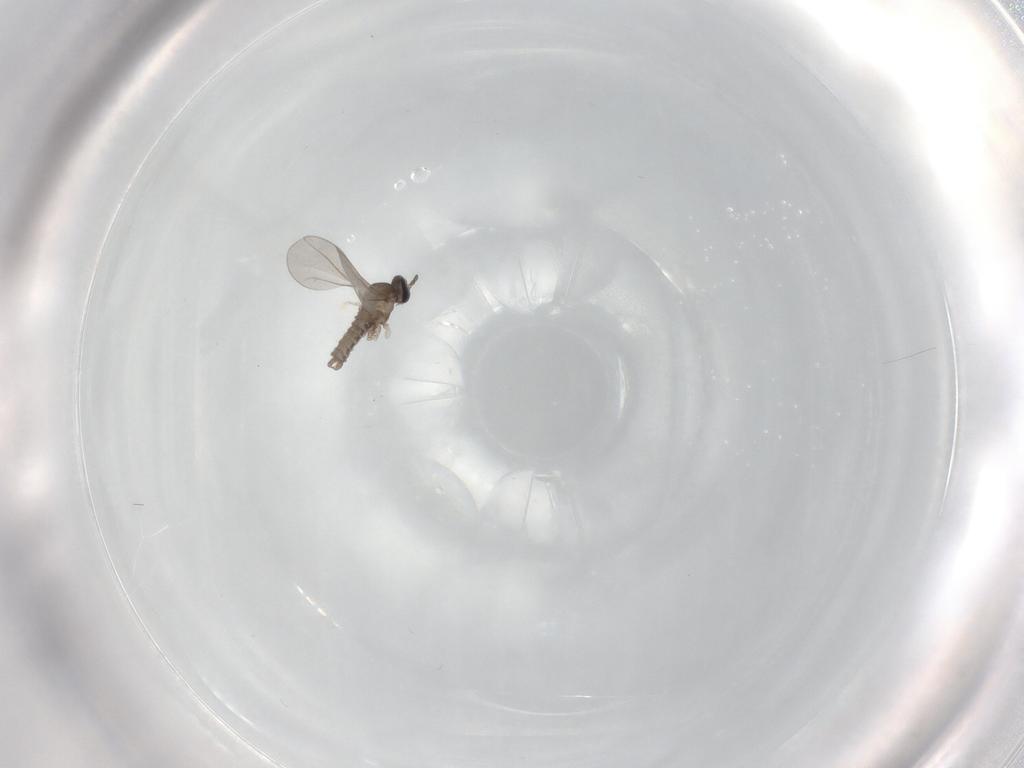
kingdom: Animalia
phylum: Arthropoda
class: Insecta
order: Diptera
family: Cecidomyiidae
